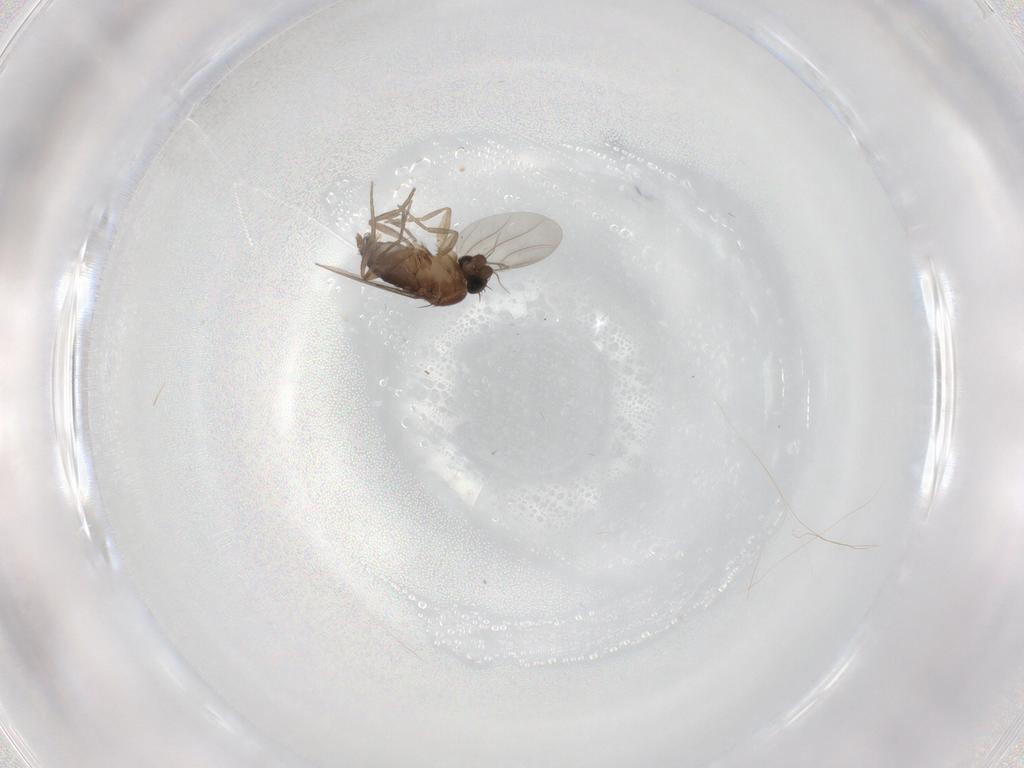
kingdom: Animalia
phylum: Arthropoda
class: Insecta
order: Diptera
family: Phoridae
